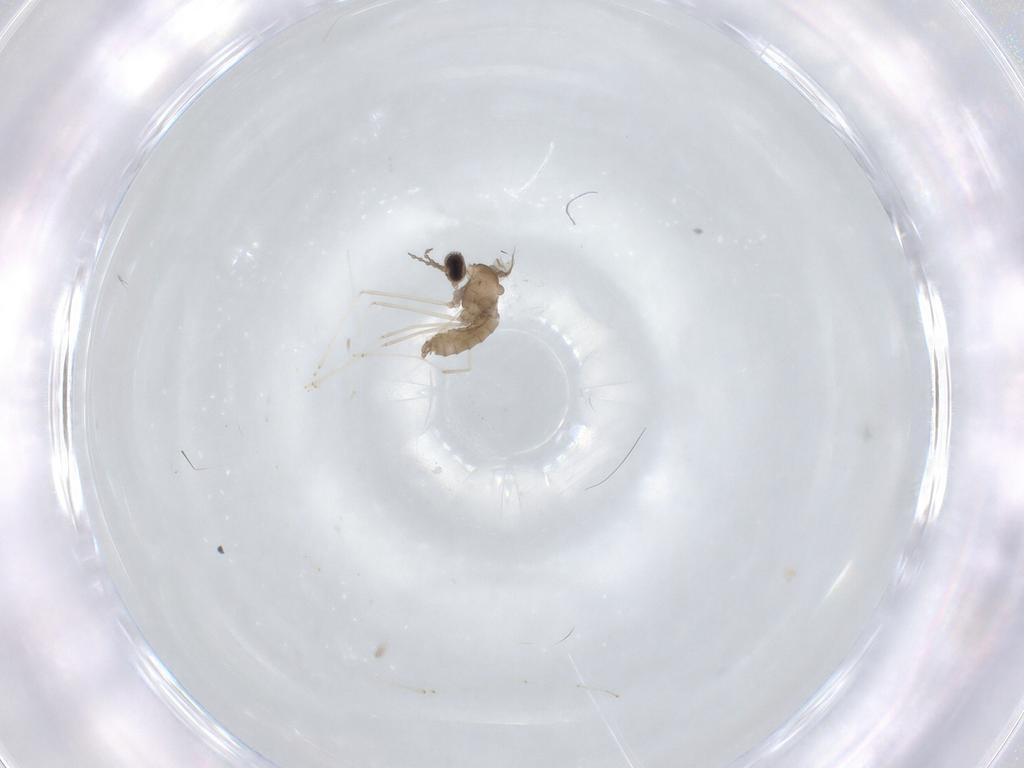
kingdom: Animalia
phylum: Arthropoda
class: Insecta
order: Diptera
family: Cecidomyiidae
